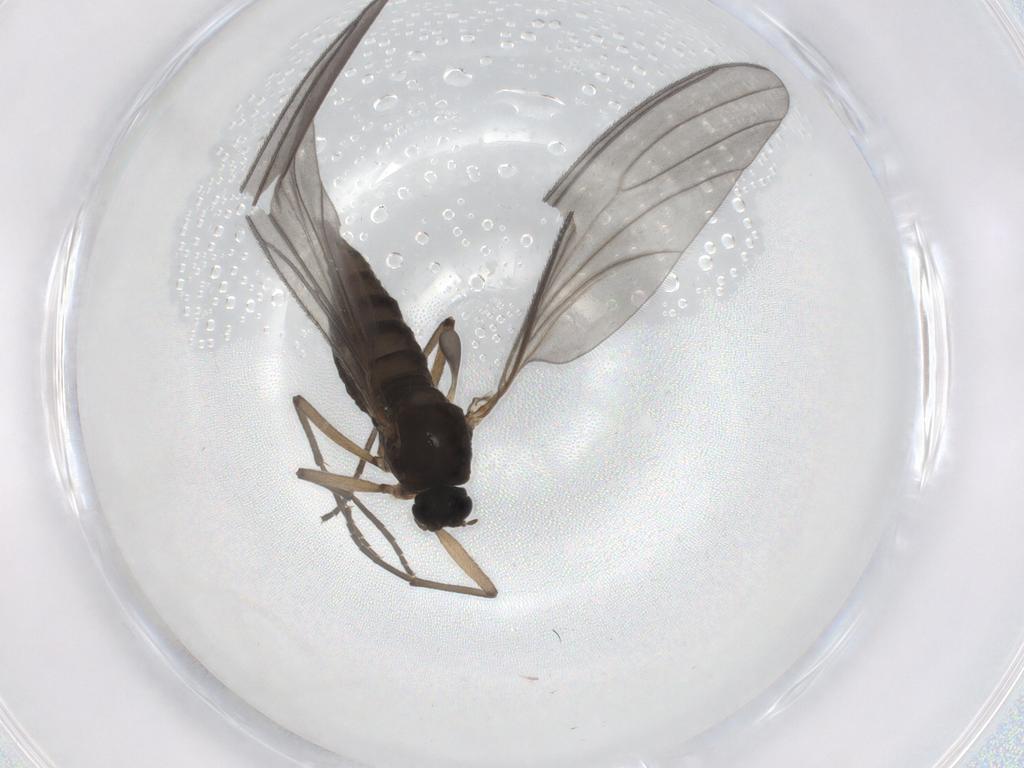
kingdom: Animalia
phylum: Arthropoda
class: Insecta
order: Diptera
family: Sciaridae
